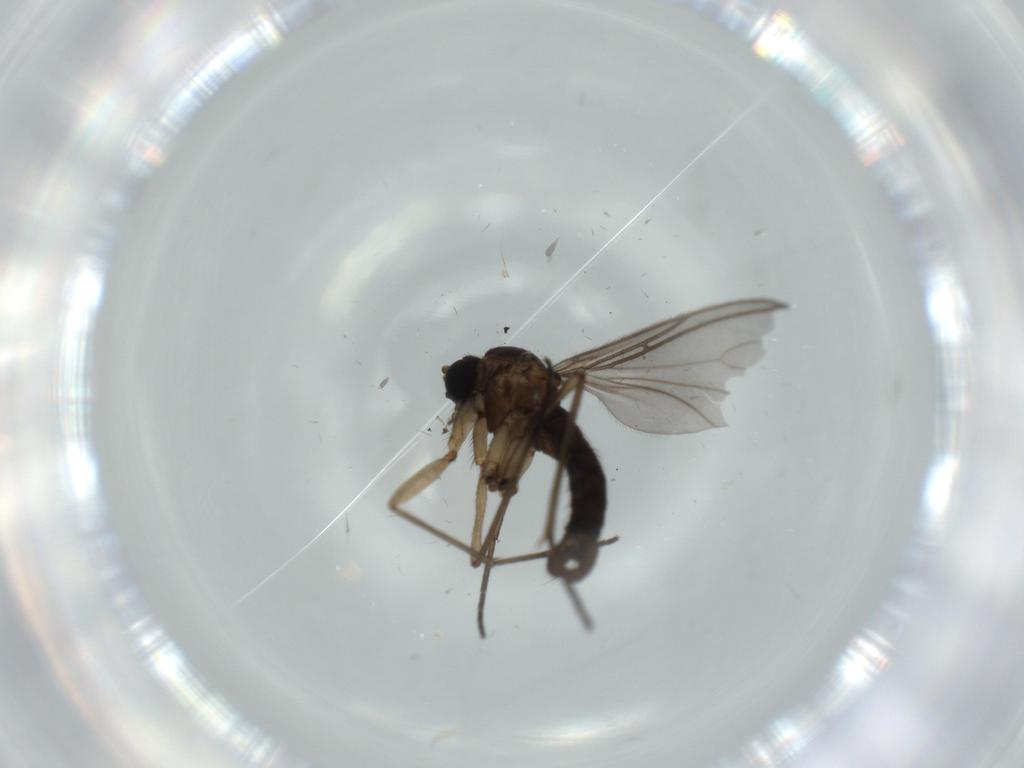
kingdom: Animalia
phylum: Arthropoda
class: Insecta
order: Diptera
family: Sciaridae
